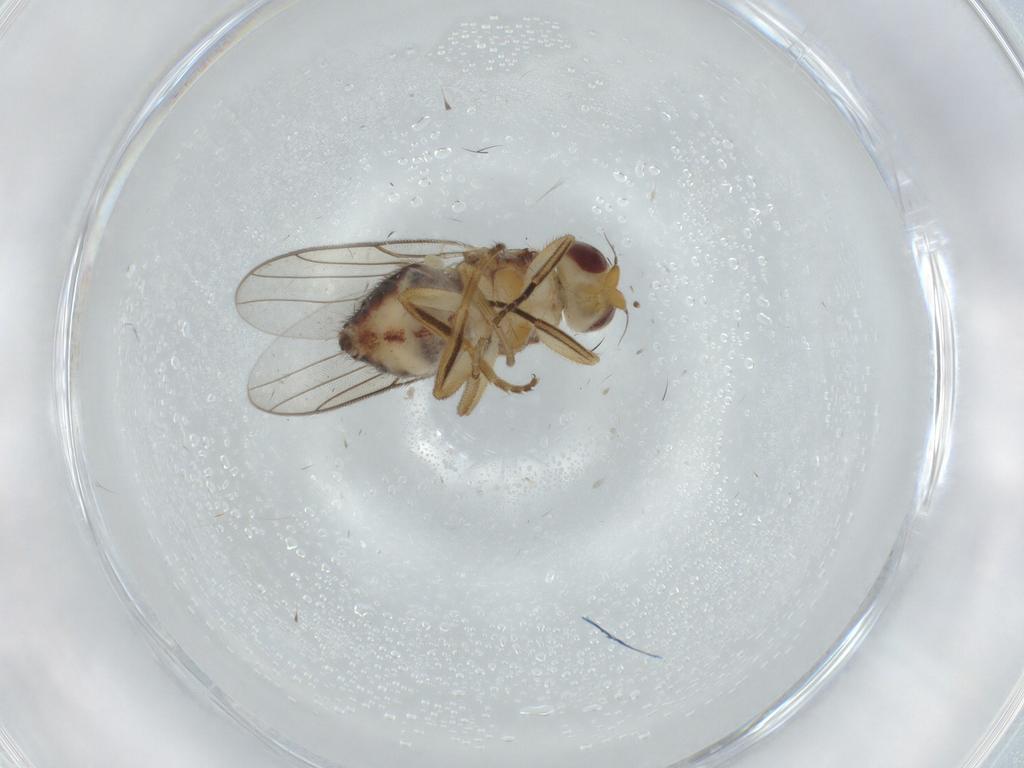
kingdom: Animalia
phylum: Arthropoda
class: Insecta
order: Diptera
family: Chloropidae
